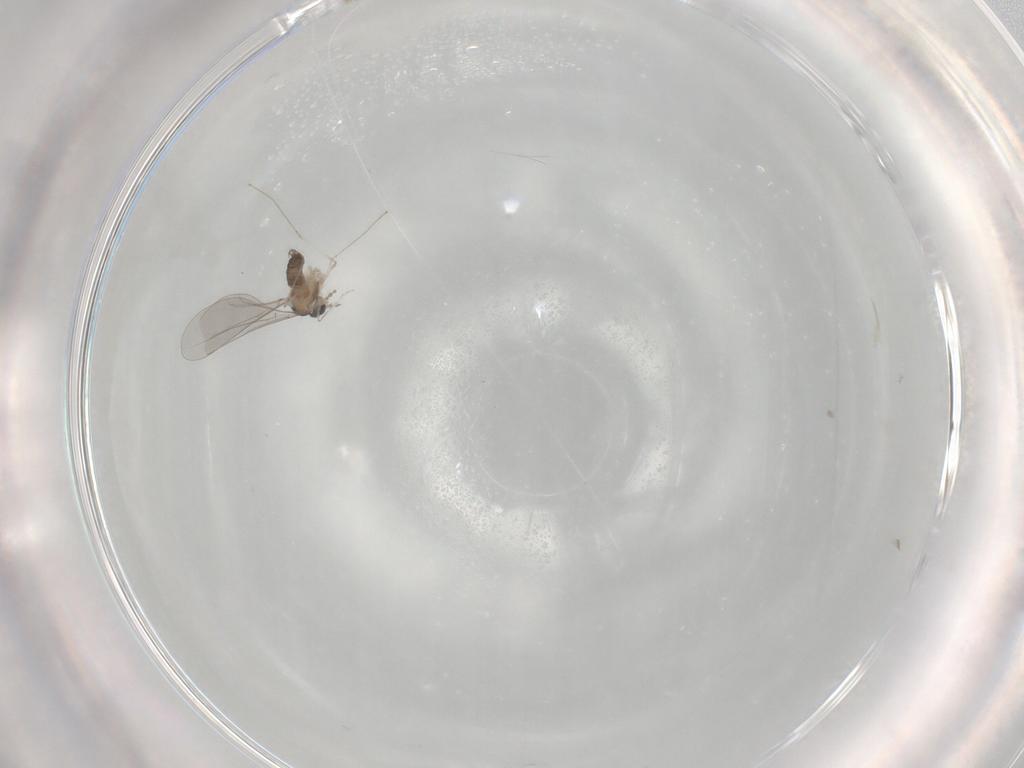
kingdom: Animalia
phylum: Arthropoda
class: Insecta
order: Diptera
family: Cecidomyiidae
